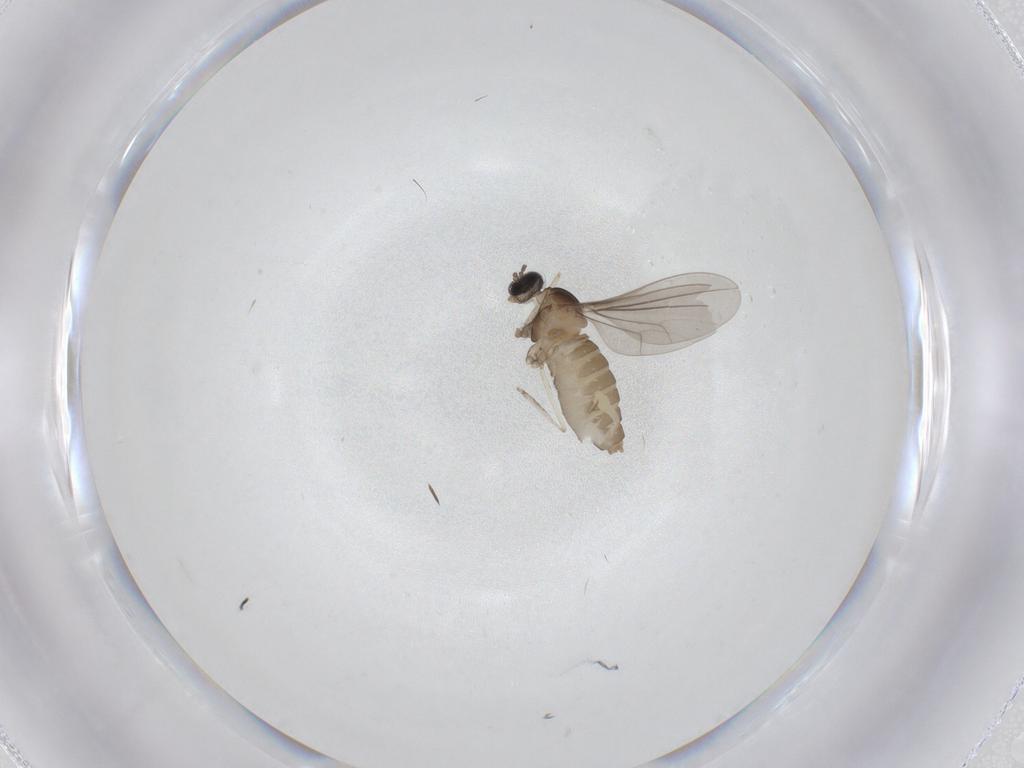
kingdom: Animalia
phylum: Arthropoda
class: Insecta
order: Diptera
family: Cecidomyiidae
